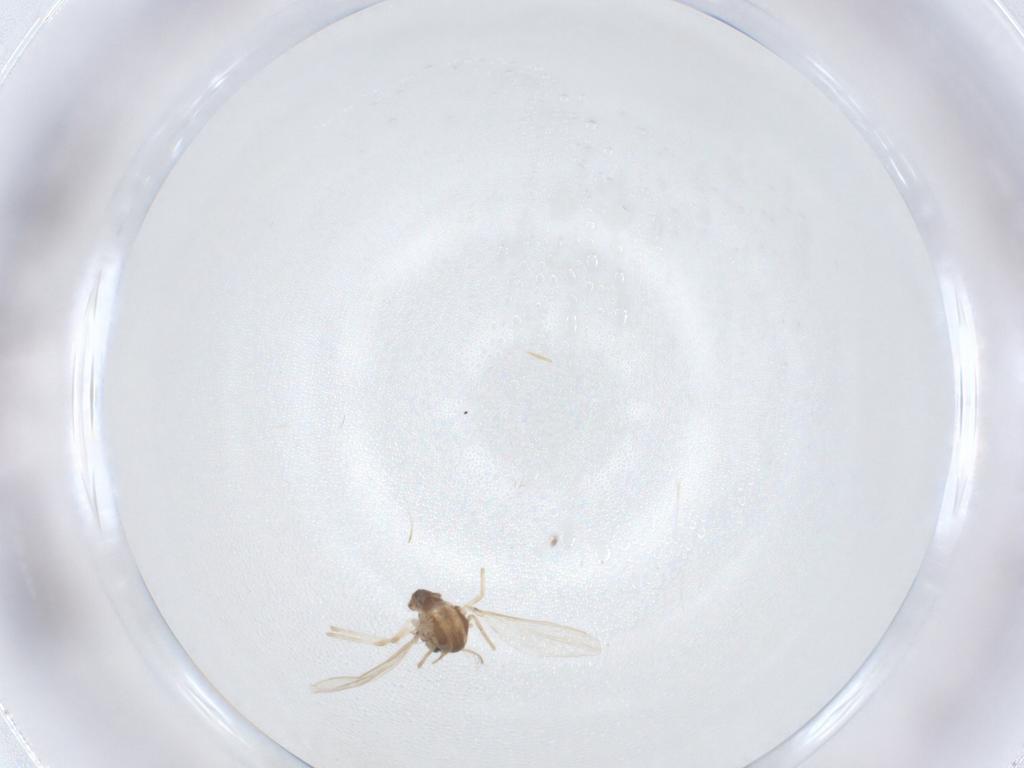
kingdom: Animalia
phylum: Arthropoda
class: Insecta
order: Diptera
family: Chironomidae
